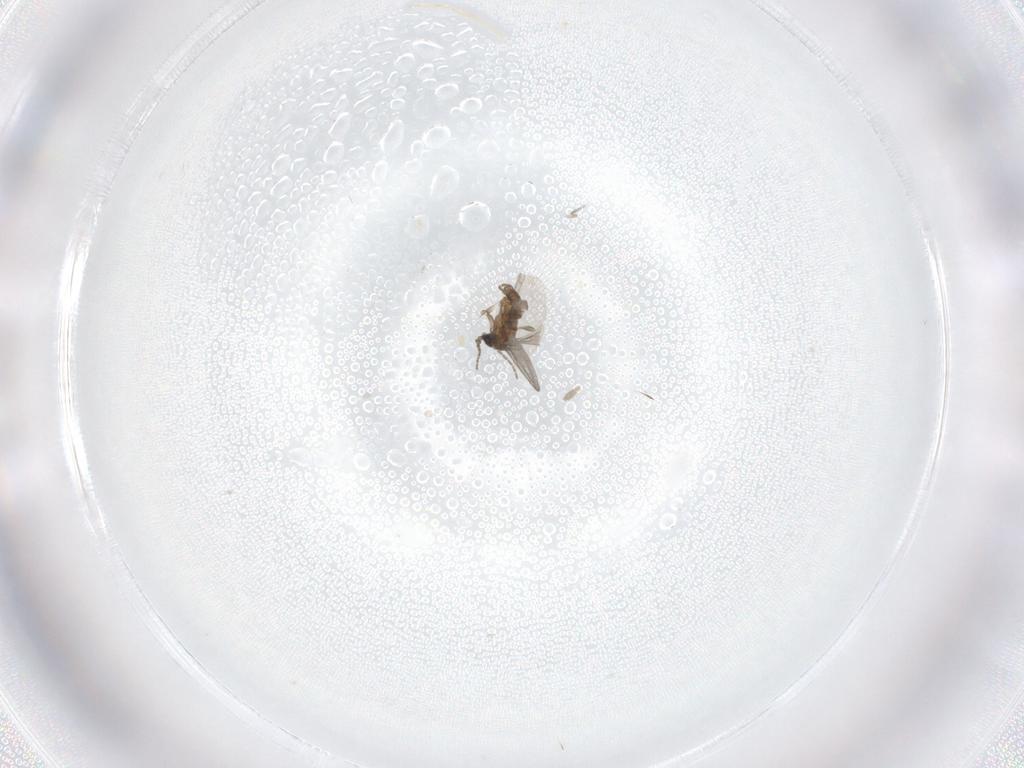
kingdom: Animalia
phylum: Arthropoda
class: Insecta
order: Diptera
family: Sciaridae
